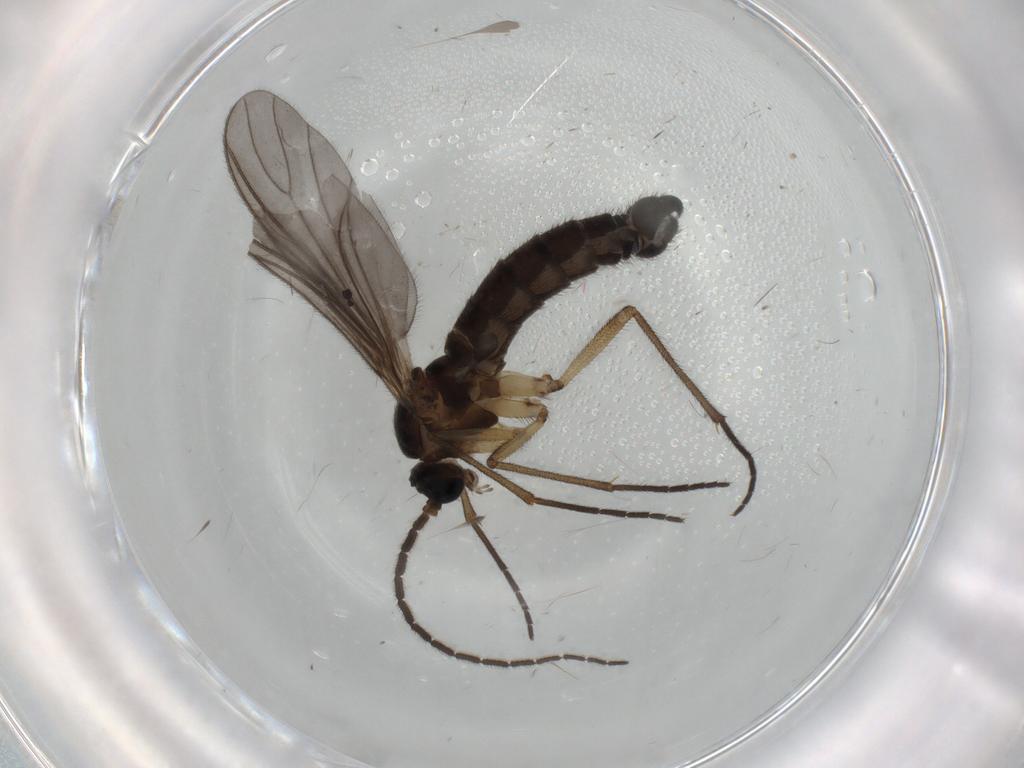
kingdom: Animalia
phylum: Arthropoda
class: Insecta
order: Diptera
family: Sciaridae
